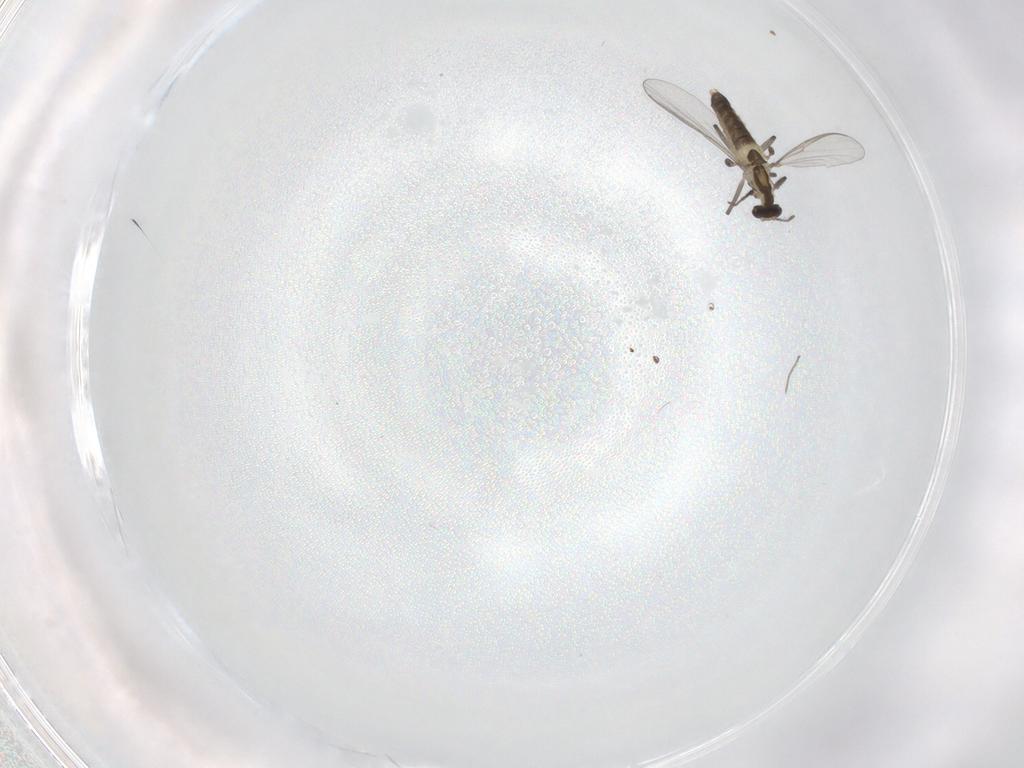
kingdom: Animalia
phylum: Arthropoda
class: Insecta
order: Diptera
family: Chironomidae
